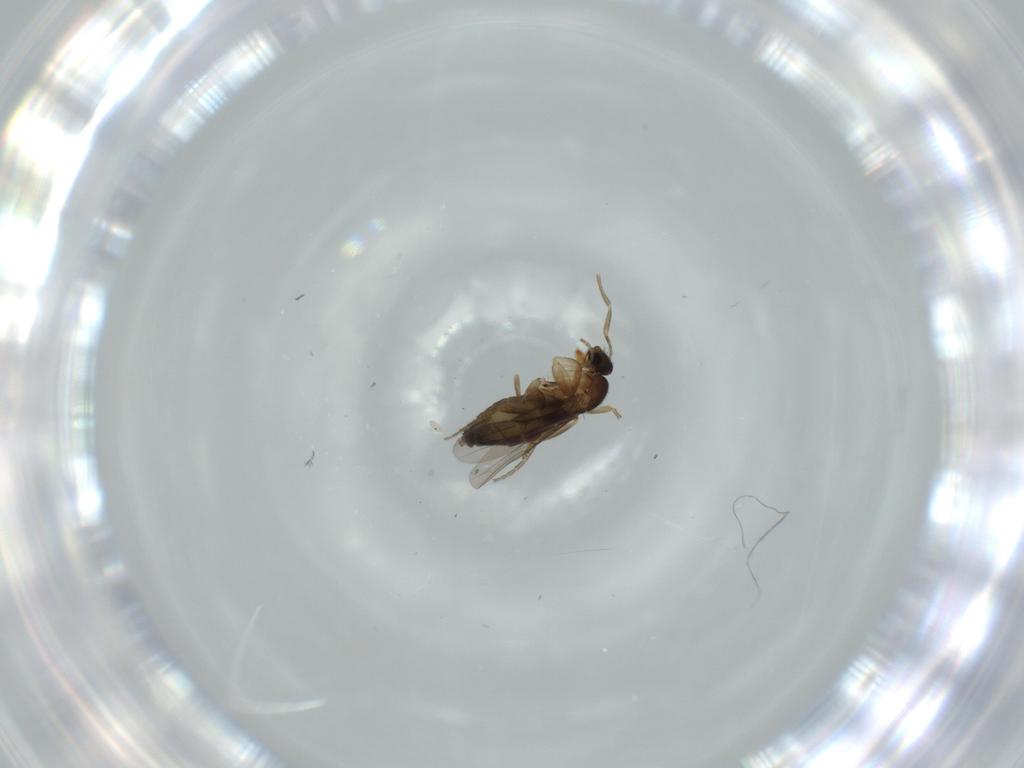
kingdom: Animalia
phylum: Arthropoda
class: Insecta
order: Diptera
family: Phoridae
